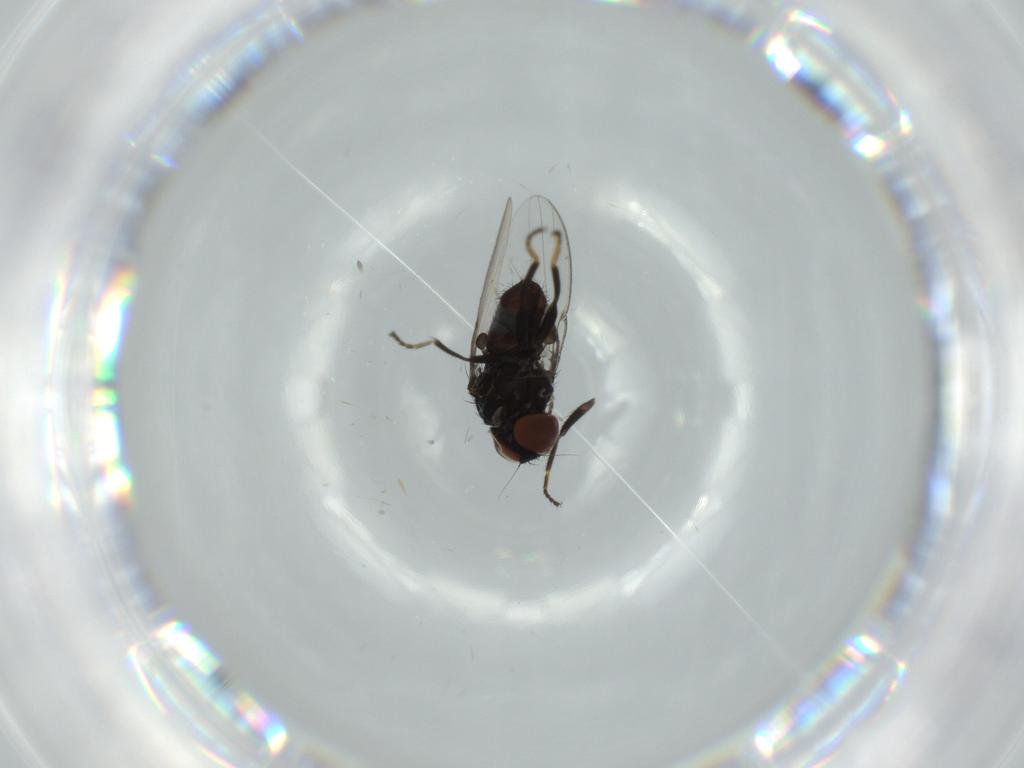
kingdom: Animalia
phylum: Arthropoda
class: Insecta
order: Diptera
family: Milichiidae
